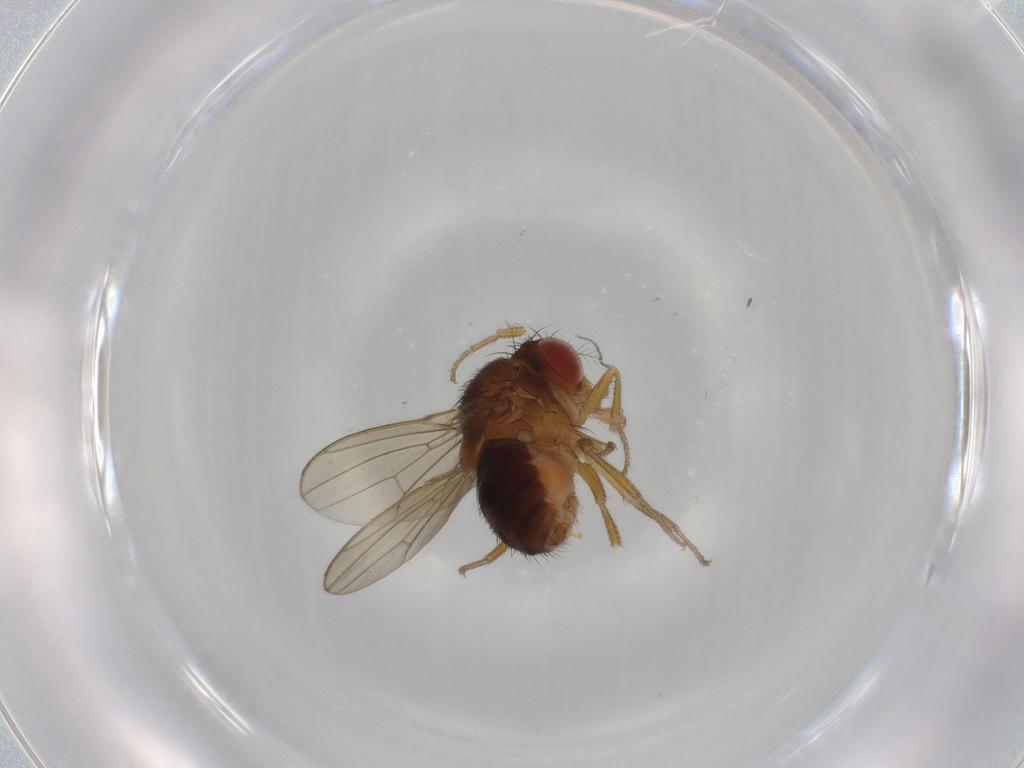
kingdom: Animalia
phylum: Arthropoda
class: Insecta
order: Diptera
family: Drosophilidae
